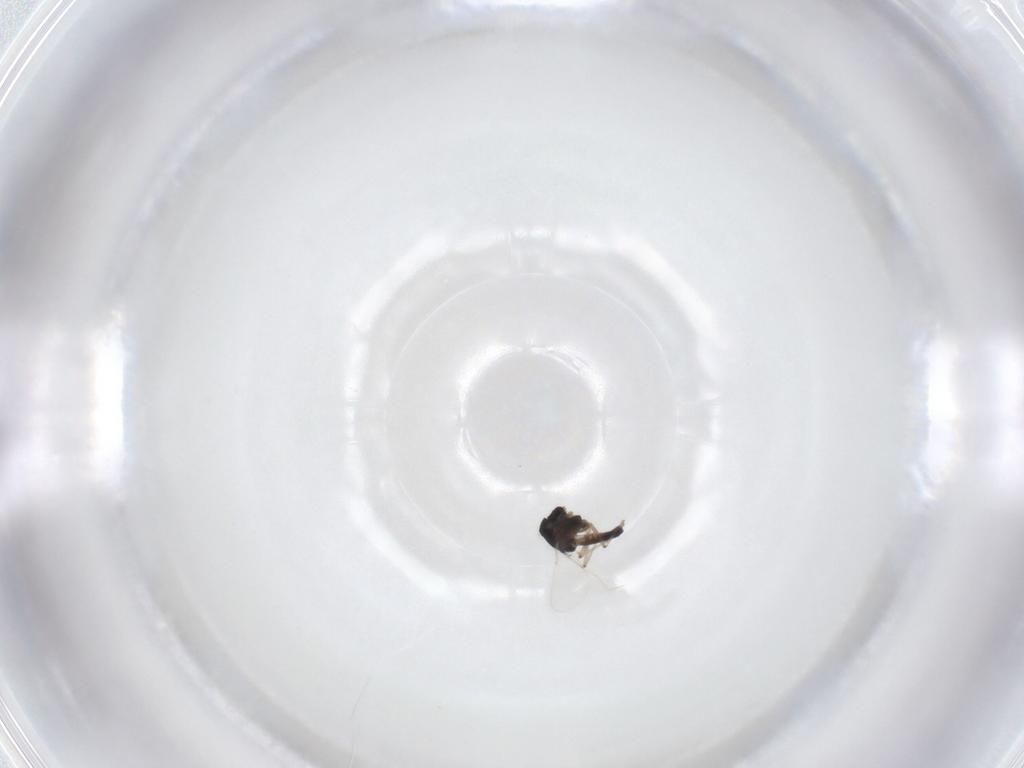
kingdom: Animalia
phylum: Arthropoda
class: Insecta
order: Diptera
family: Chironomidae
